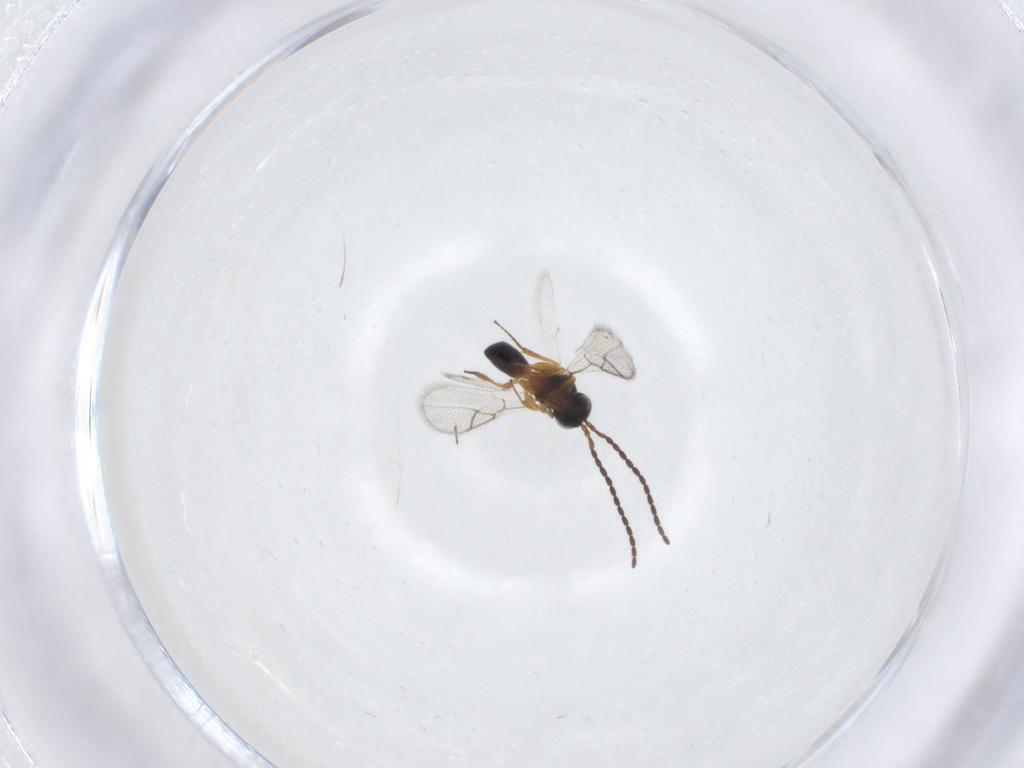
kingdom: Animalia
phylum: Arthropoda
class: Insecta
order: Hymenoptera
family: Figitidae
